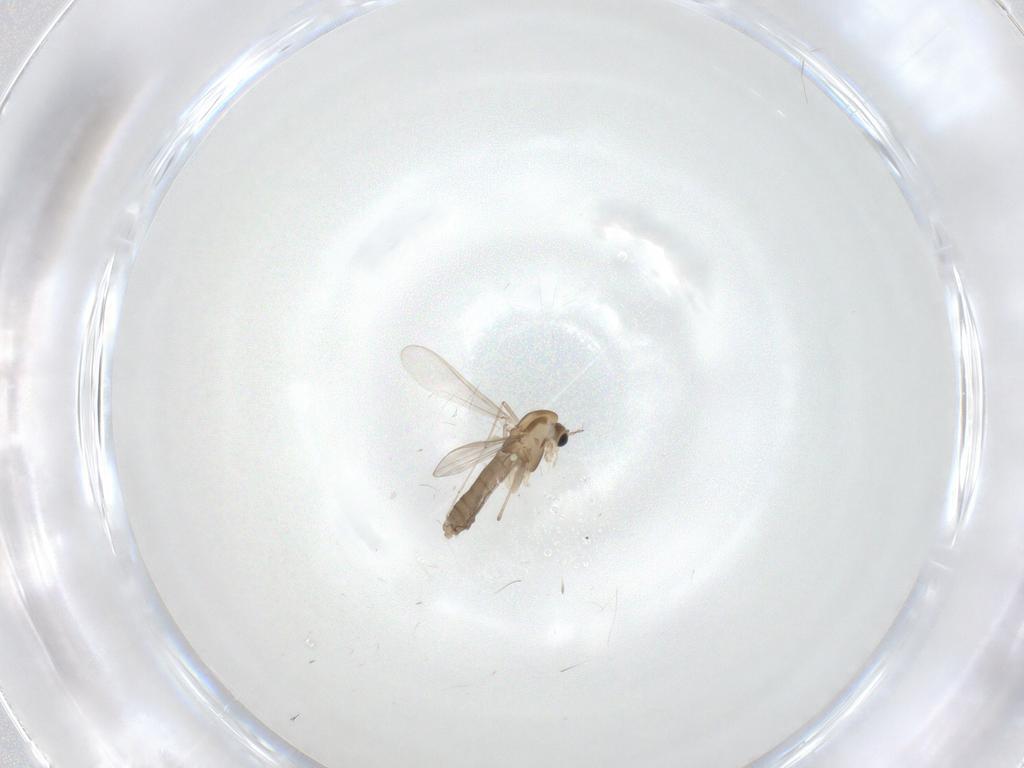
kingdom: Animalia
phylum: Arthropoda
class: Insecta
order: Diptera
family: Chironomidae
